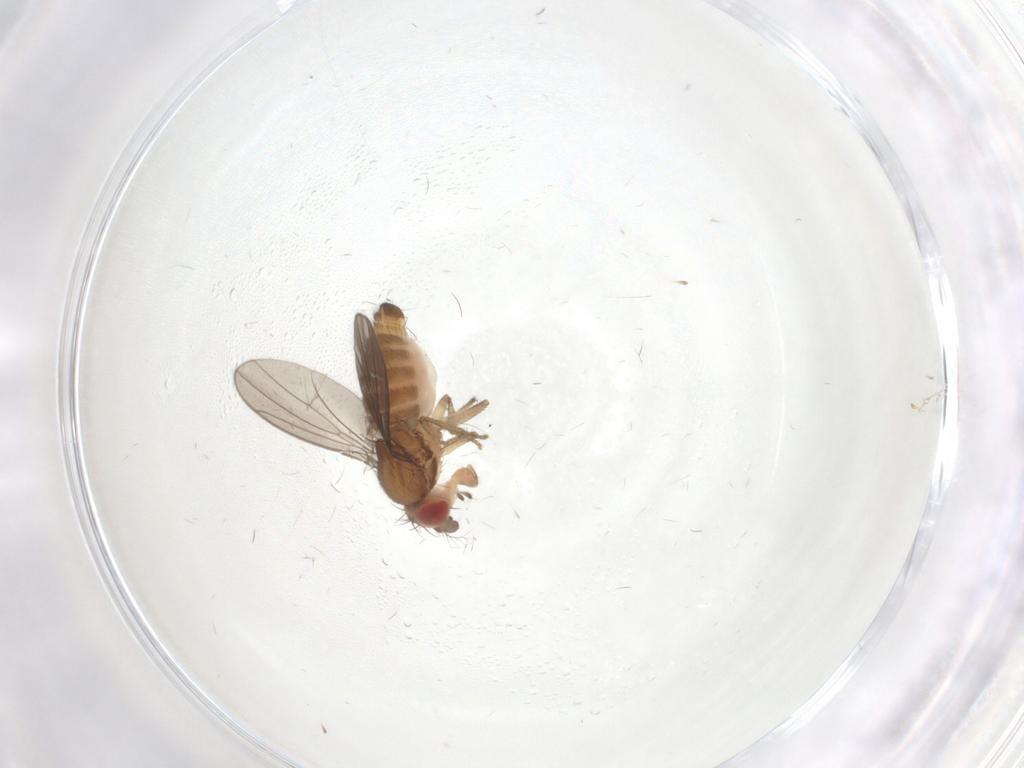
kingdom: Animalia
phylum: Arthropoda
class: Insecta
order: Diptera
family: Drosophilidae
